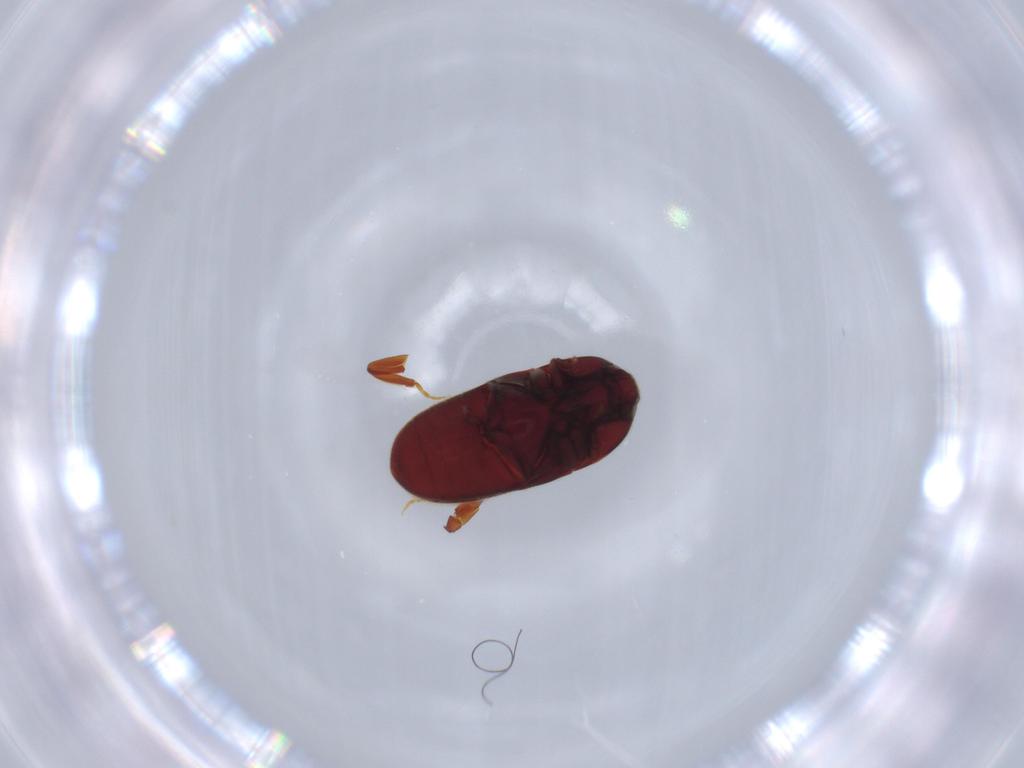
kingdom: Animalia
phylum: Arthropoda
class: Insecta
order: Coleoptera
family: Throscidae
